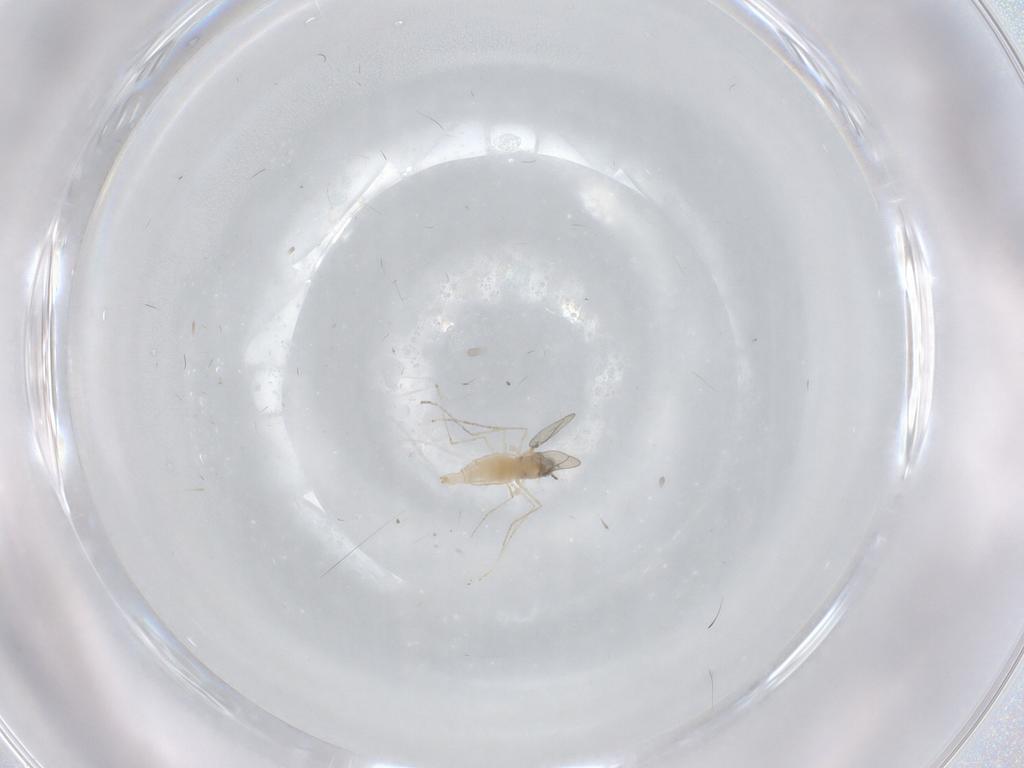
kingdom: Animalia
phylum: Arthropoda
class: Insecta
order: Diptera
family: Cecidomyiidae
